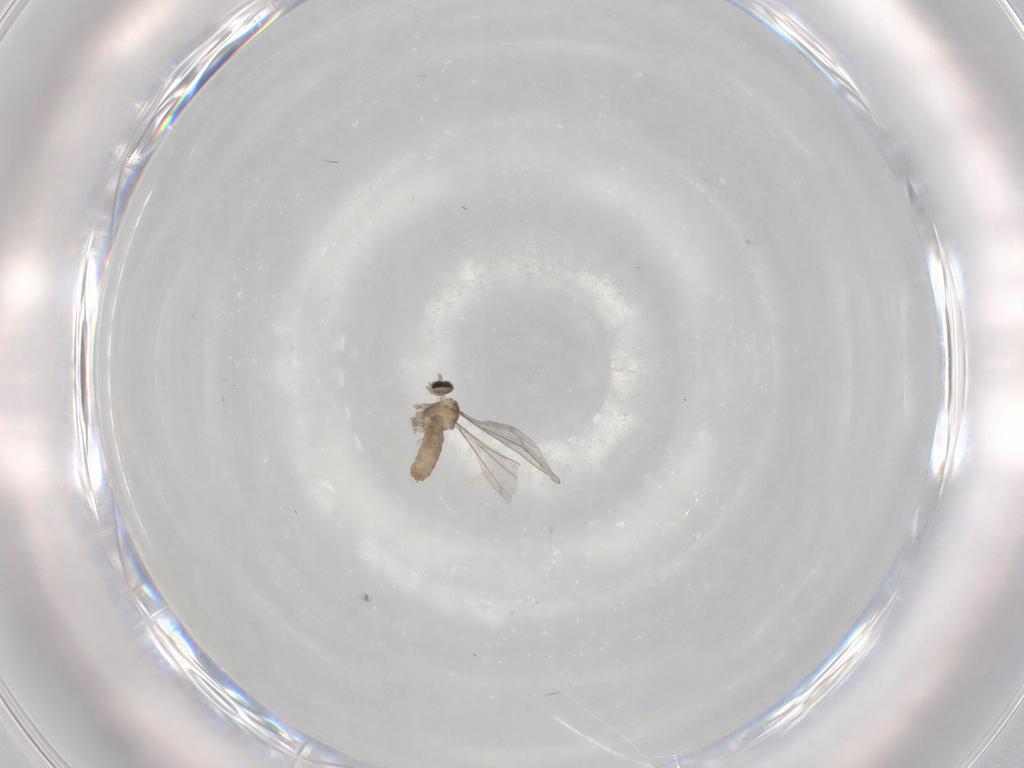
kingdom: Animalia
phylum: Arthropoda
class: Insecta
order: Diptera
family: Cecidomyiidae
